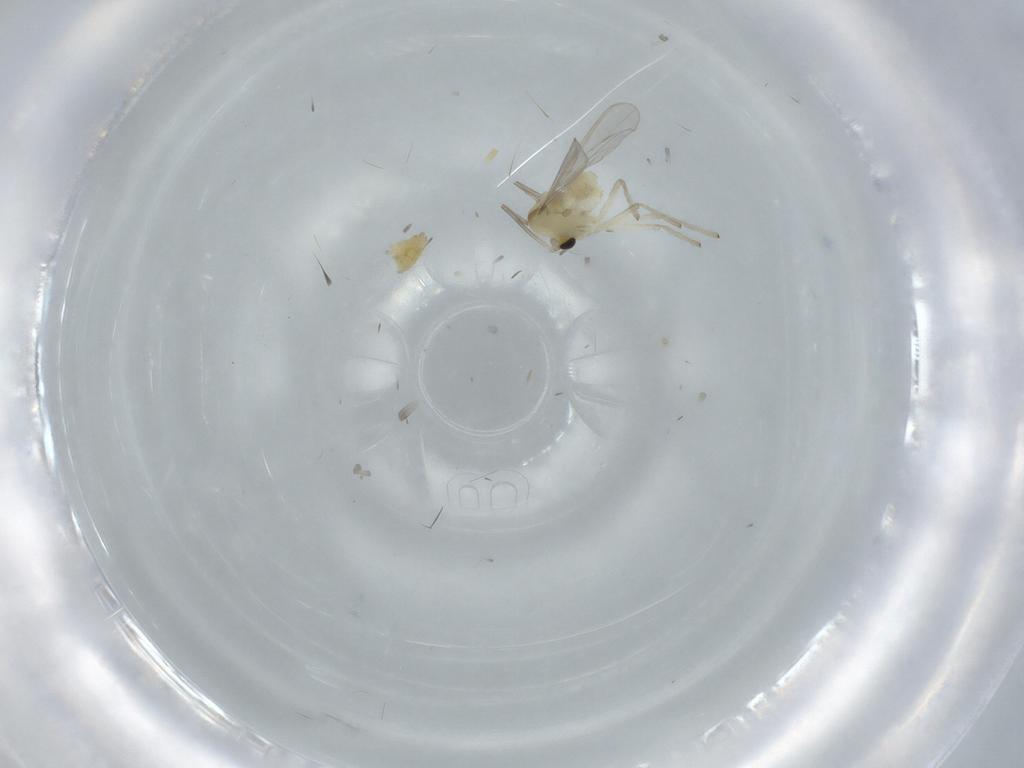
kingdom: Animalia
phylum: Arthropoda
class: Insecta
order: Diptera
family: Chironomidae
